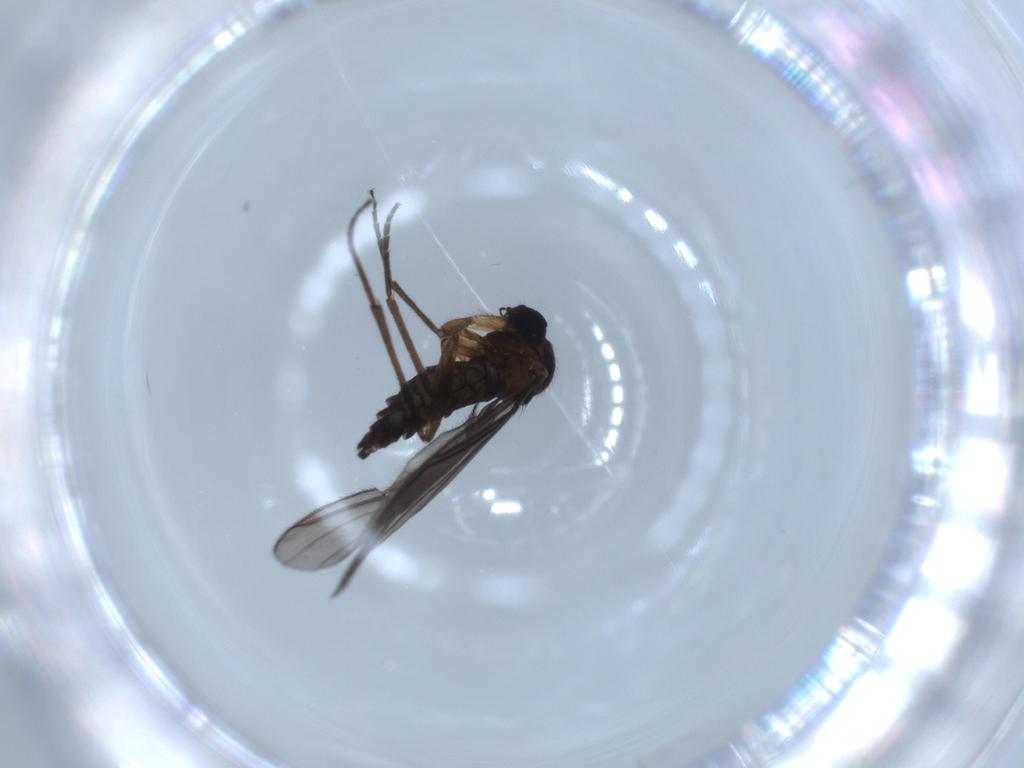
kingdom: Animalia
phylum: Arthropoda
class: Insecta
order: Diptera
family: Sciaridae
